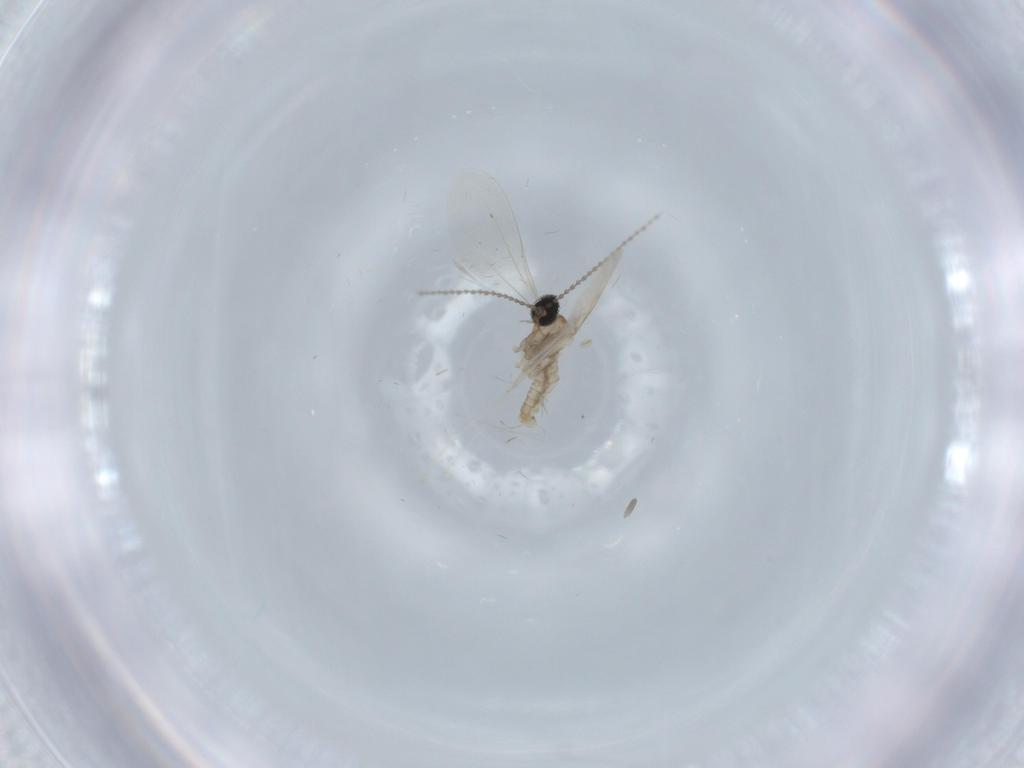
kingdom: Animalia
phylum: Arthropoda
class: Insecta
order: Diptera
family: Cecidomyiidae
